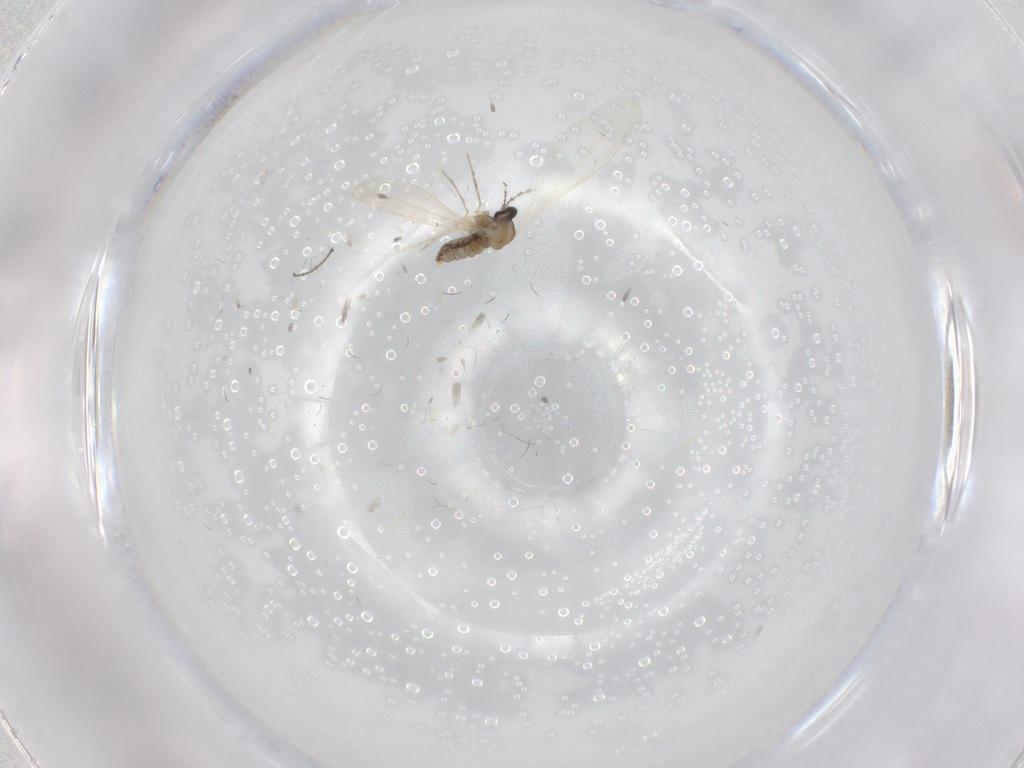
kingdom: Animalia
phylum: Arthropoda
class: Insecta
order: Diptera
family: Cecidomyiidae
